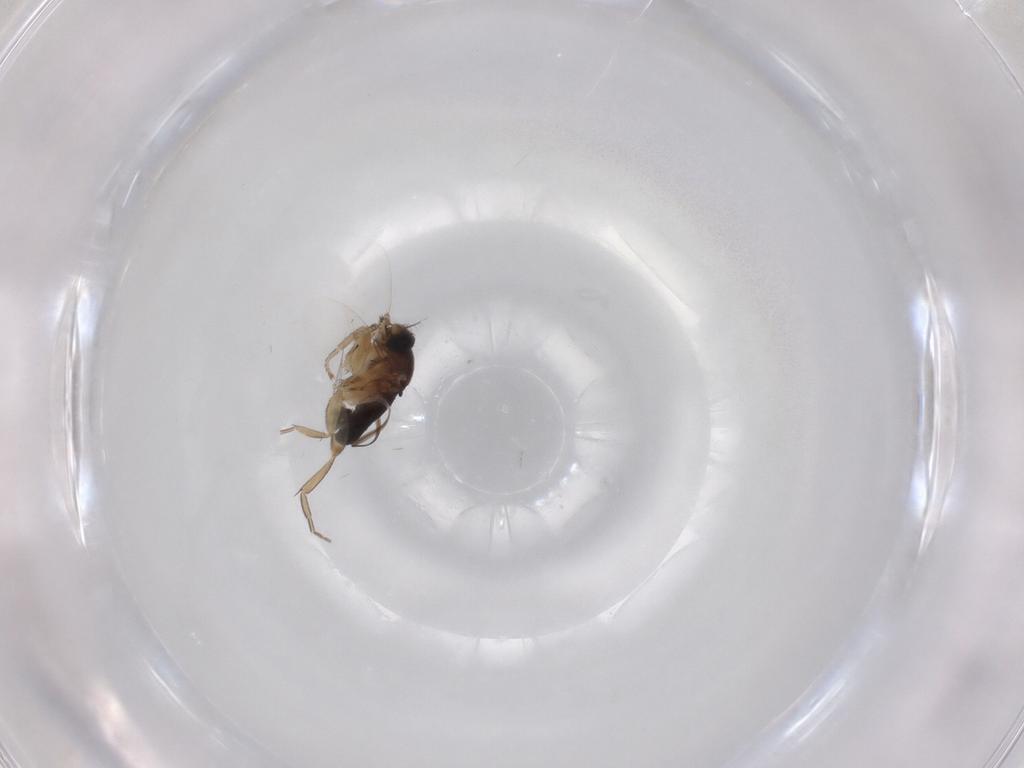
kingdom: Animalia
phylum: Arthropoda
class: Insecta
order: Diptera
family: Phoridae
